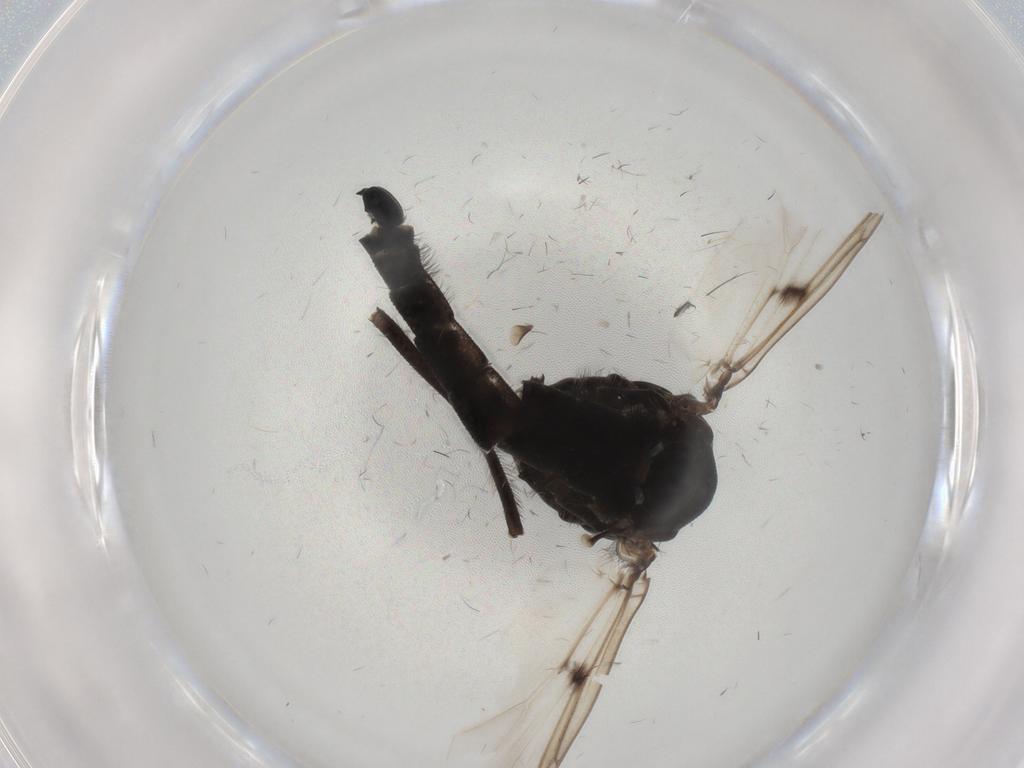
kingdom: Animalia
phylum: Arthropoda
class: Insecta
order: Diptera
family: Chironomidae
